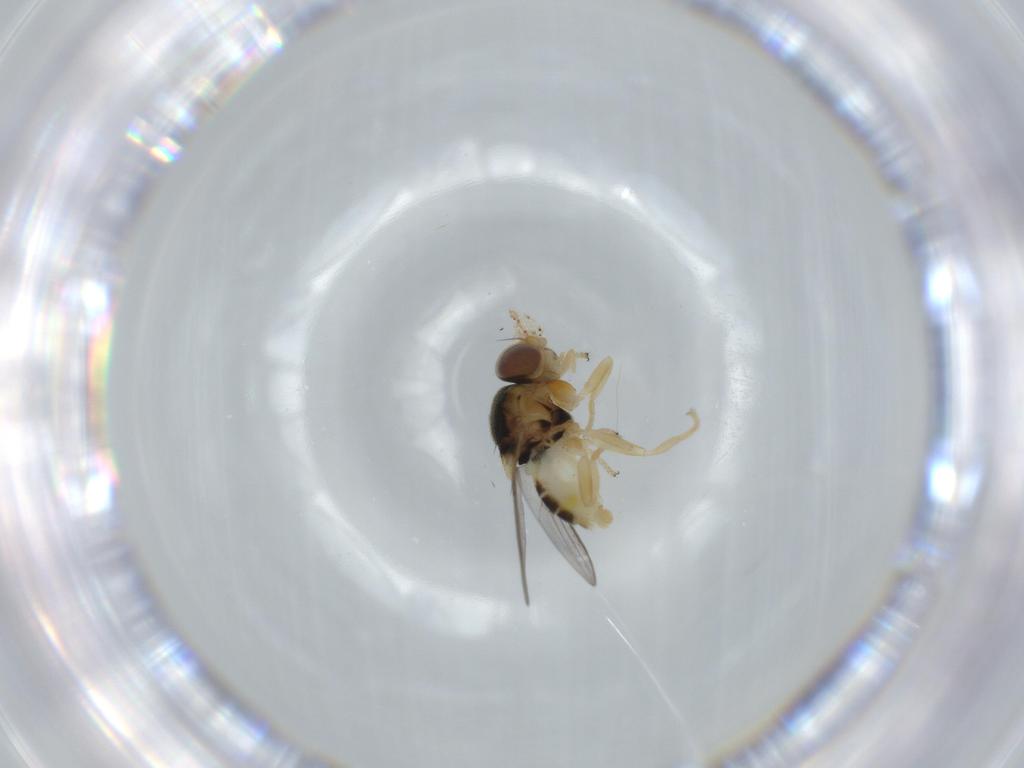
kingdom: Animalia
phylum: Arthropoda
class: Insecta
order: Diptera
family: Chloropidae
